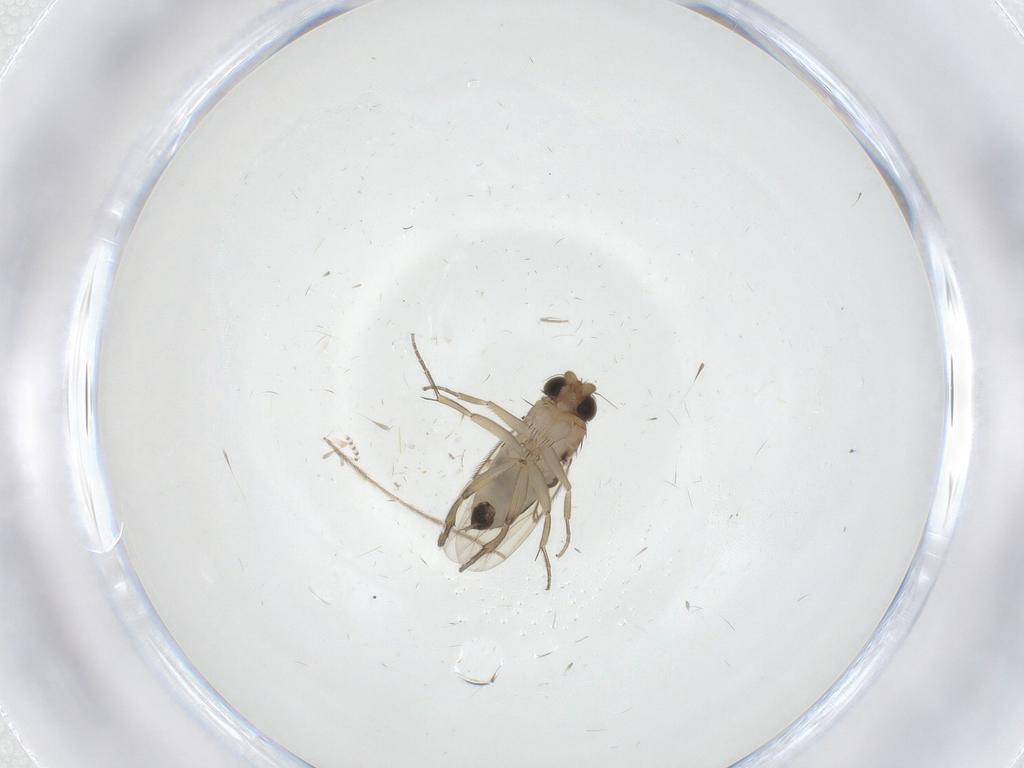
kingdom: Animalia
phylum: Arthropoda
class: Insecta
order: Diptera
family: Phoridae
